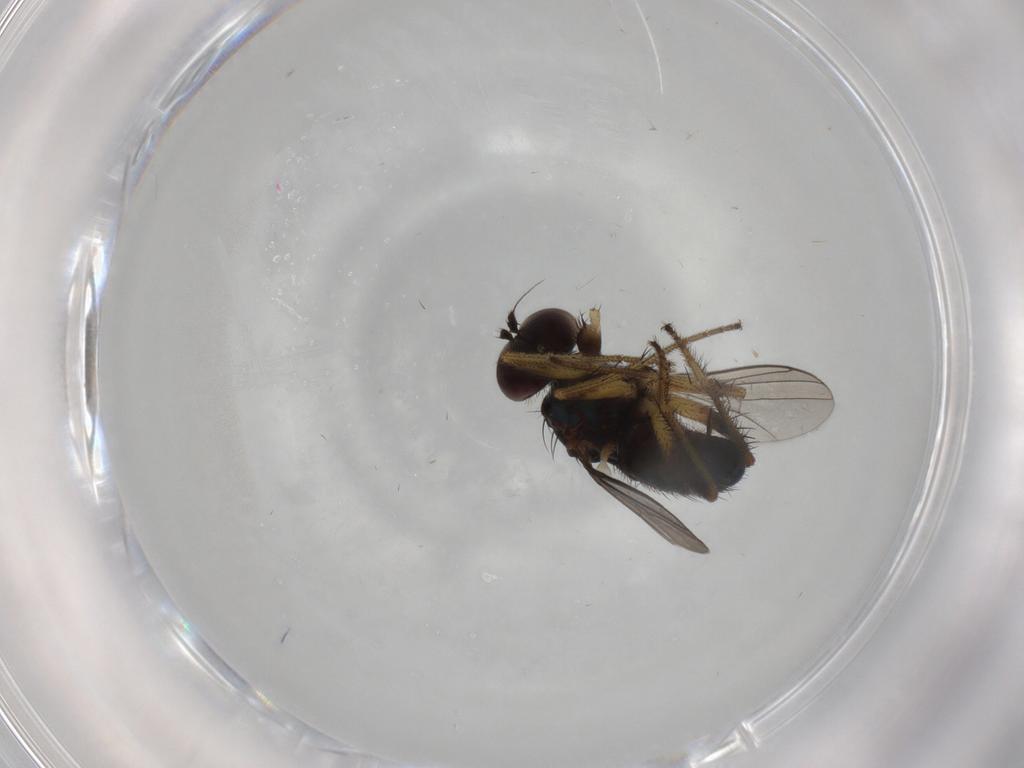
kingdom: Animalia
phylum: Arthropoda
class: Insecta
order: Diptera
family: Dolichopodidae
